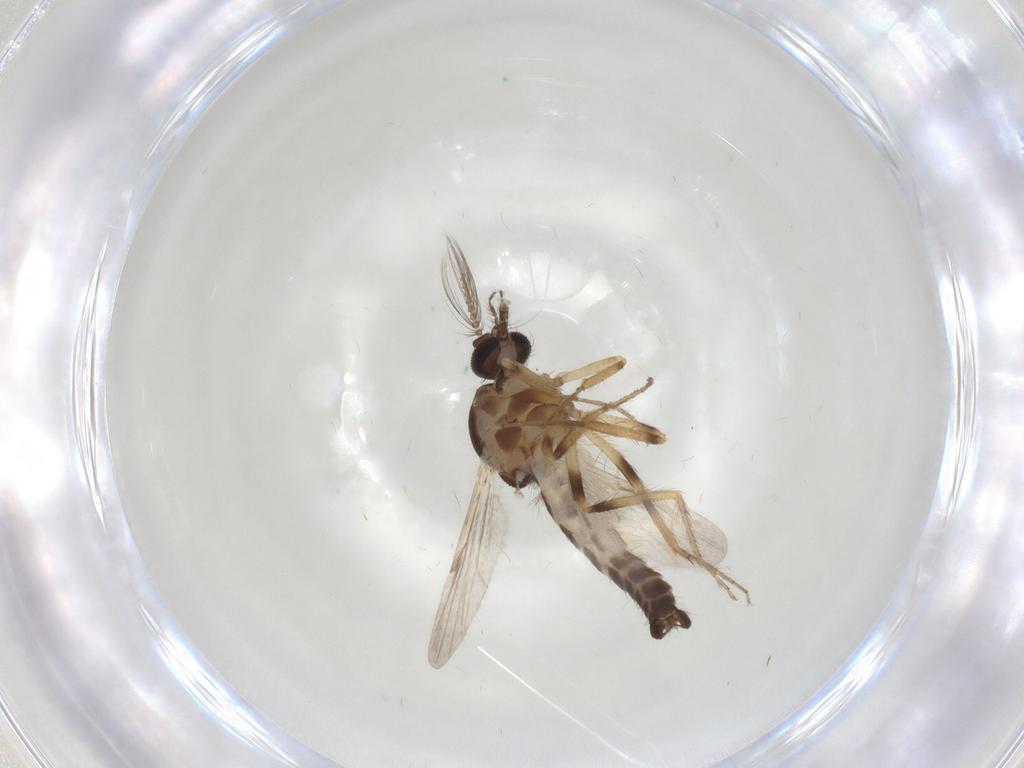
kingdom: Animalia
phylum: Arthropoda
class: Insecta
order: Diptera
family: Ceratopogonidae
